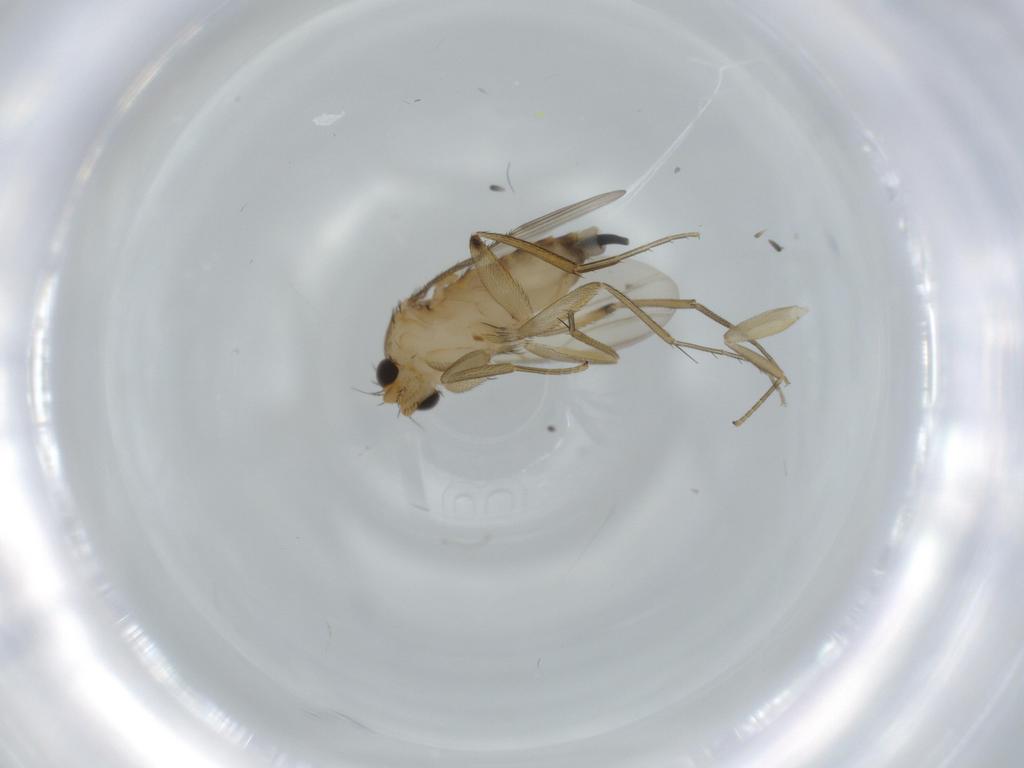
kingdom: Animalia
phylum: Arthropoda
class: Insecta
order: Diptera
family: Phoridae
